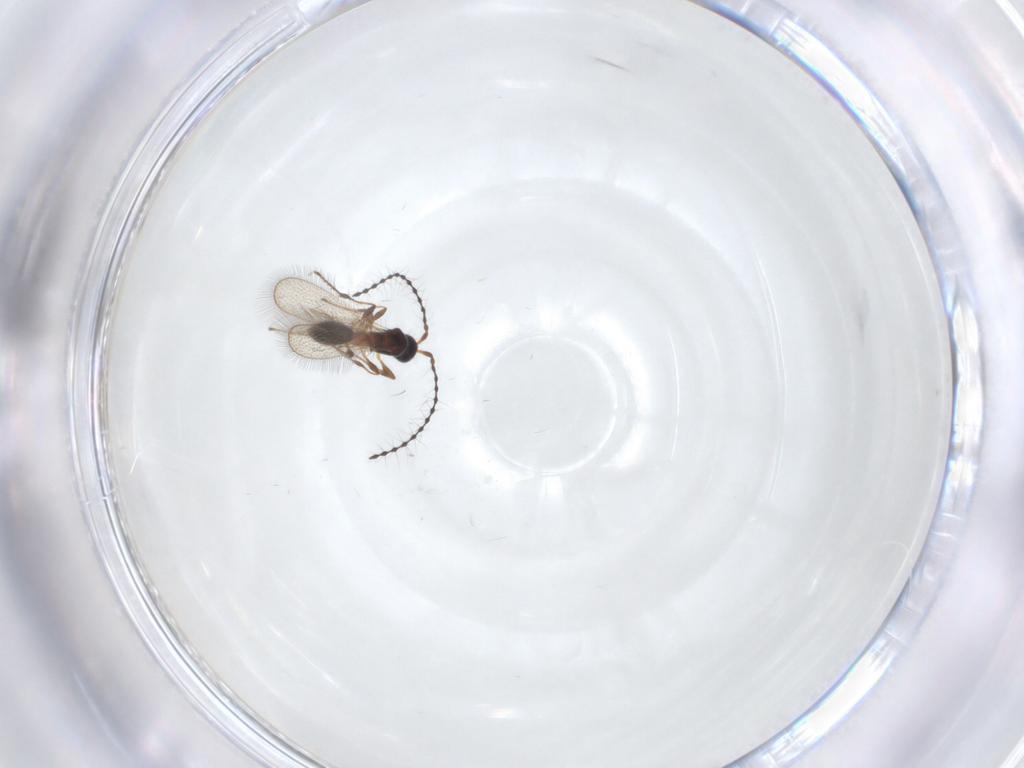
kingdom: Animalia
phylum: Arthropoda
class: Insecta
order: Hymenoptera
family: Diapriidae
